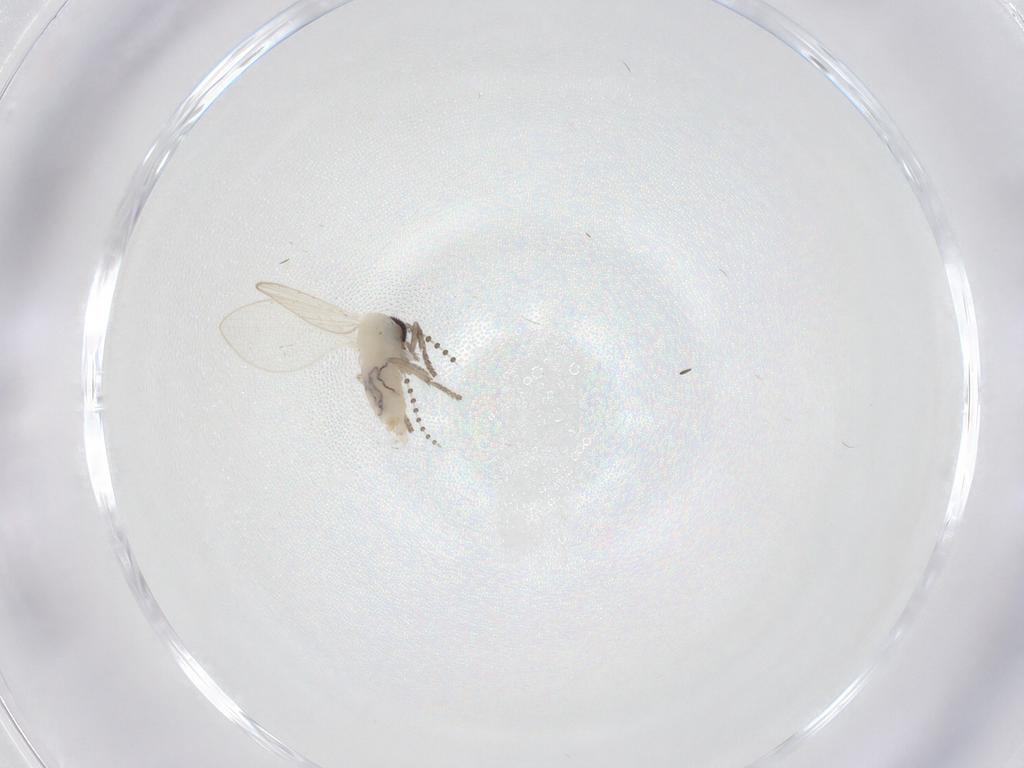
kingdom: Animalia
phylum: Arthropoda
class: Insecta
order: Diptera
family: Psychodidae
